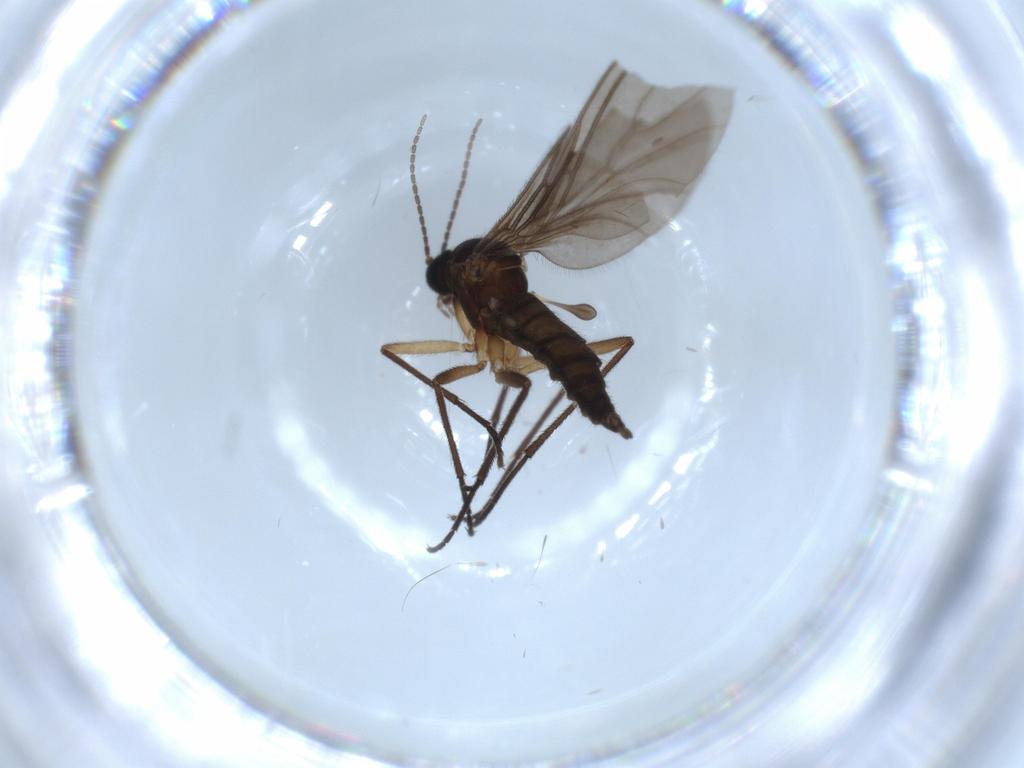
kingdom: Animalia
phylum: Arthropoda
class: Insecta
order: Diptera
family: Sciaridae
